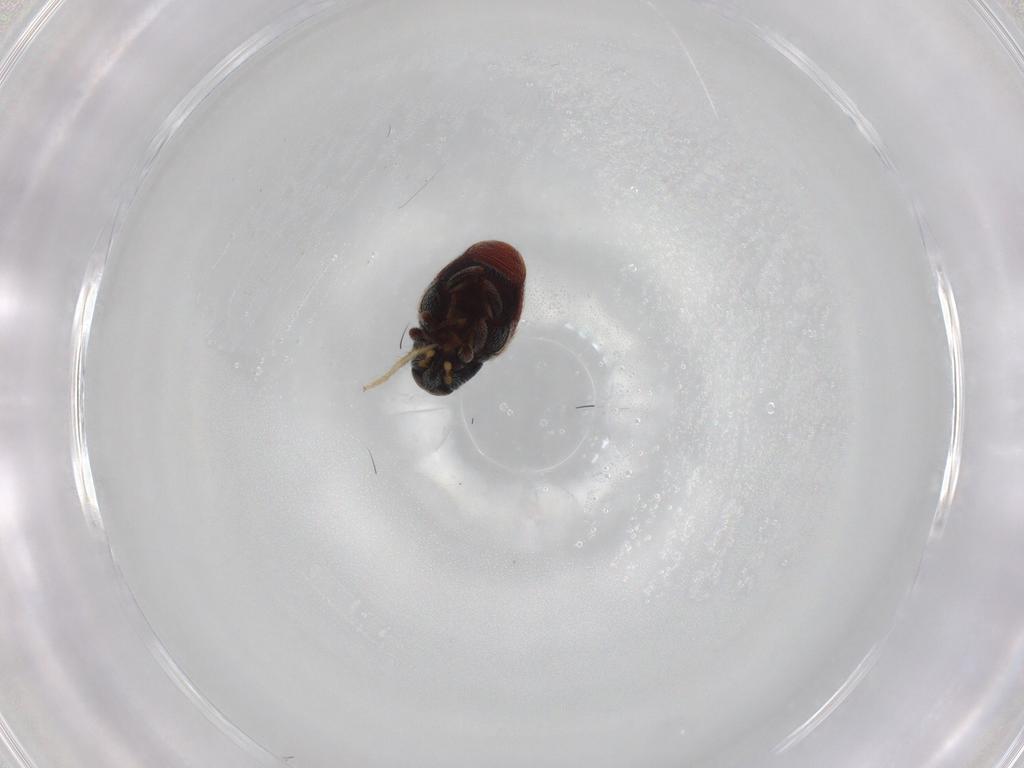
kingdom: Animalia
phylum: Arthropoda
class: Insecta
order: Coleoptera
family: Curculionidae
